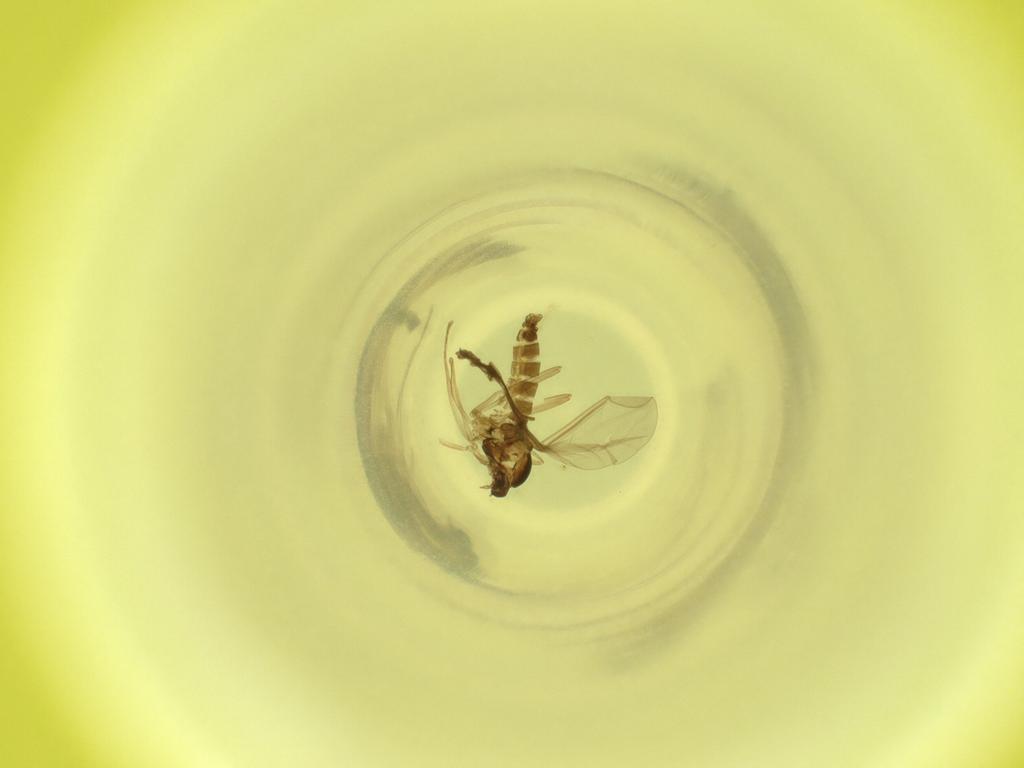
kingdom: Animalia
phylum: Arthropoda
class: Insecta
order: Diptera
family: Cecidomyiidae
